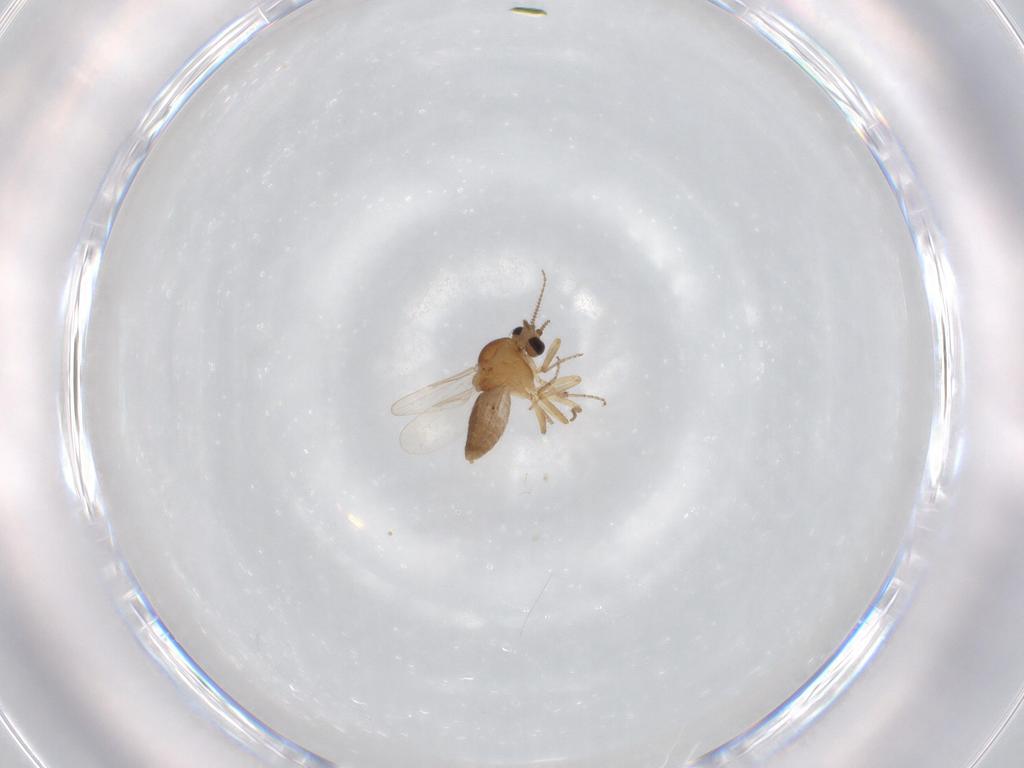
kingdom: Animalia
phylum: Arthropoda
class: Insecta
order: Diptera
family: Ceratopogonidae
